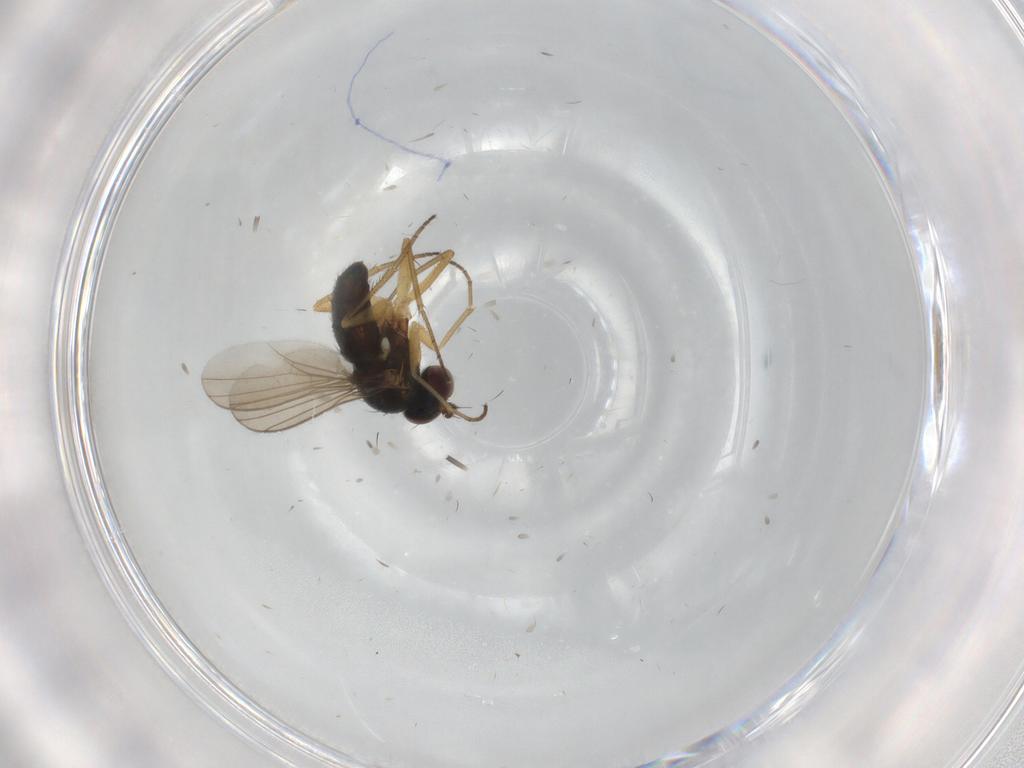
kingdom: Animalia
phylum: Arthropoda
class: Insecta
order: Diptera
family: Dolichopodidae
